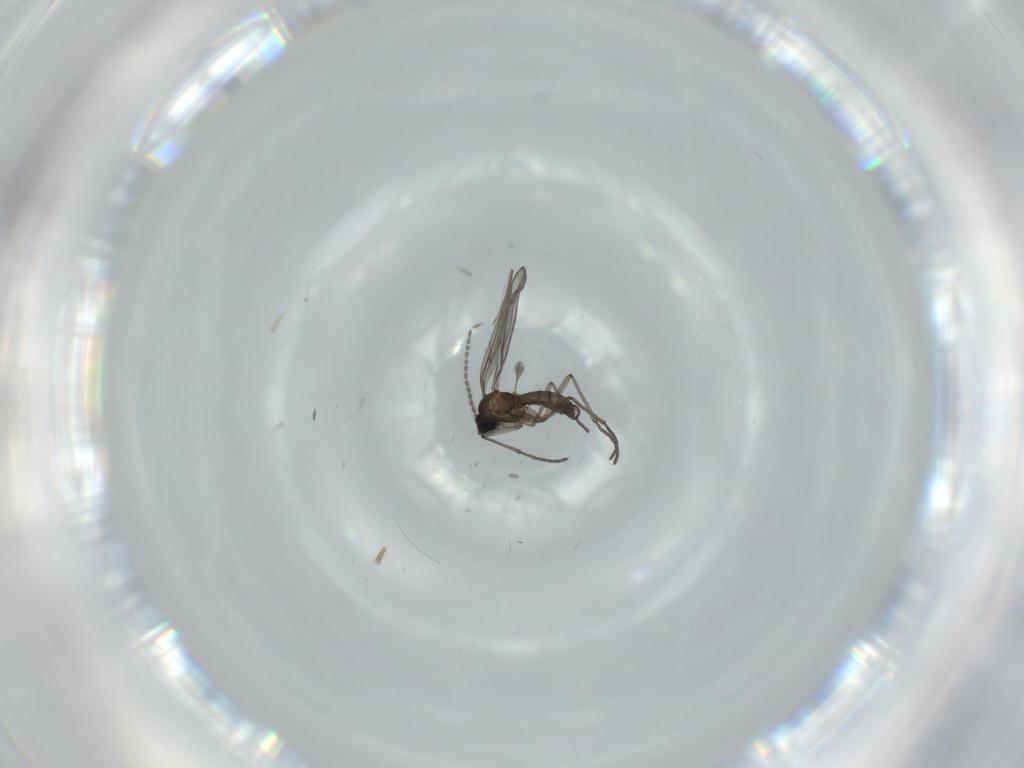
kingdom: Animalia
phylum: Arthropoda
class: Insecta
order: Diptera
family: Sciaridae
